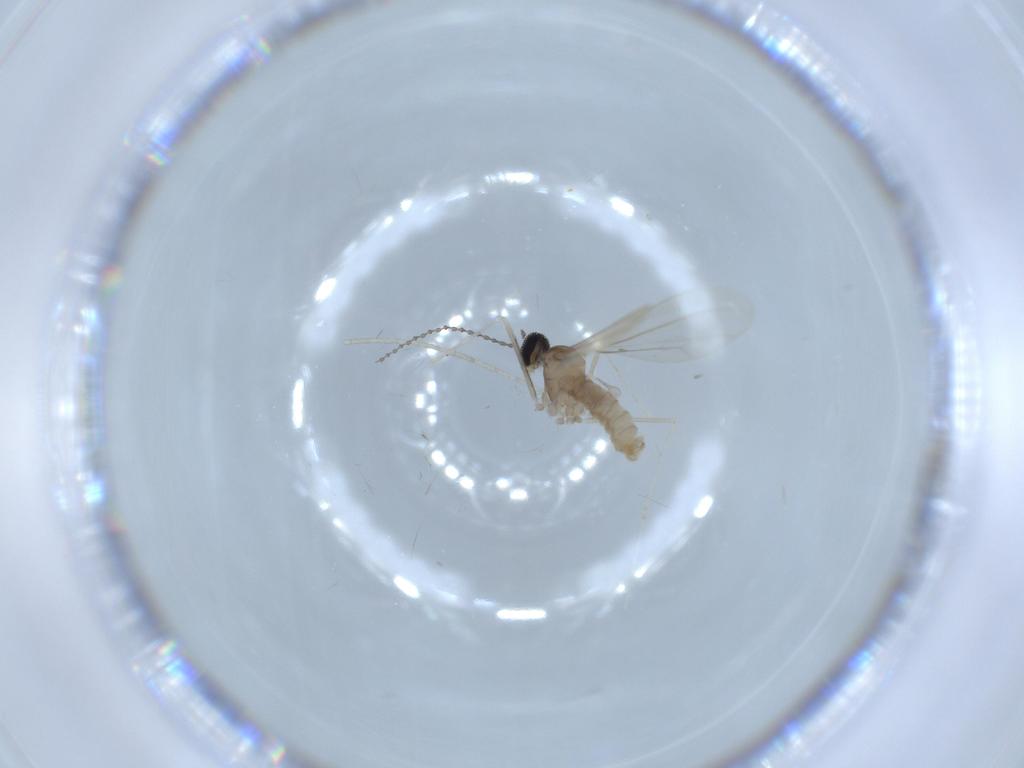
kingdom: Animalia
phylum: Arthropoda
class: Insecta
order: Diptera
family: Cecidomyiidae
